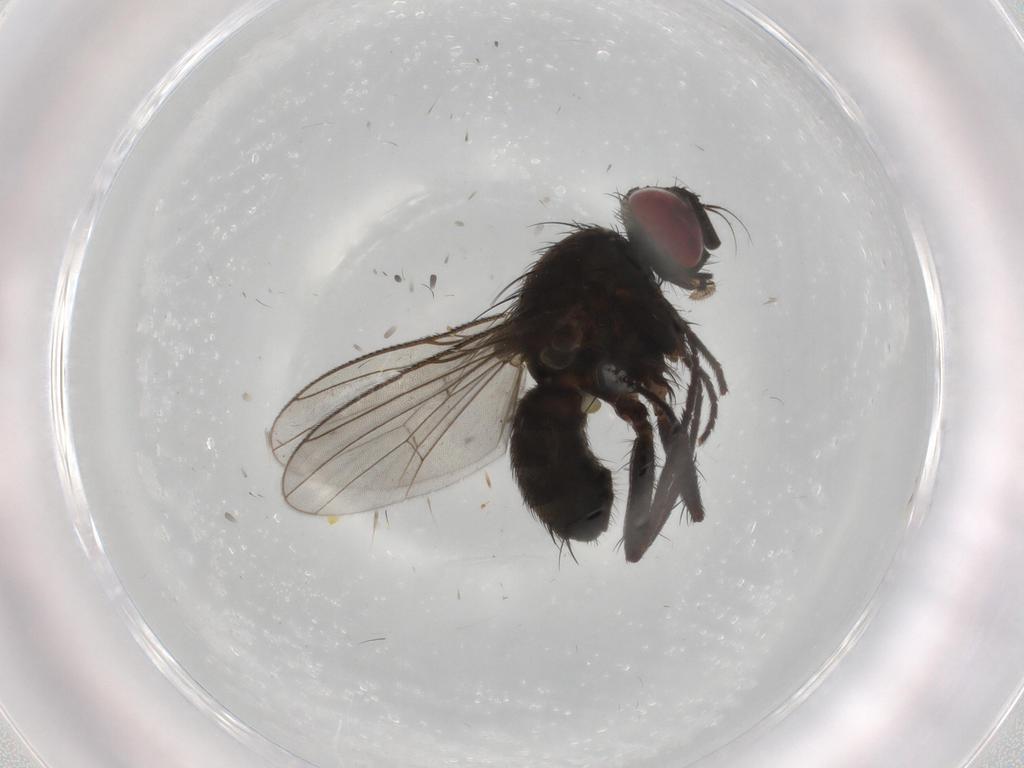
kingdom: Animalia
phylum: Arthropoda
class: Insecta
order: Diptera
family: Muscidae
